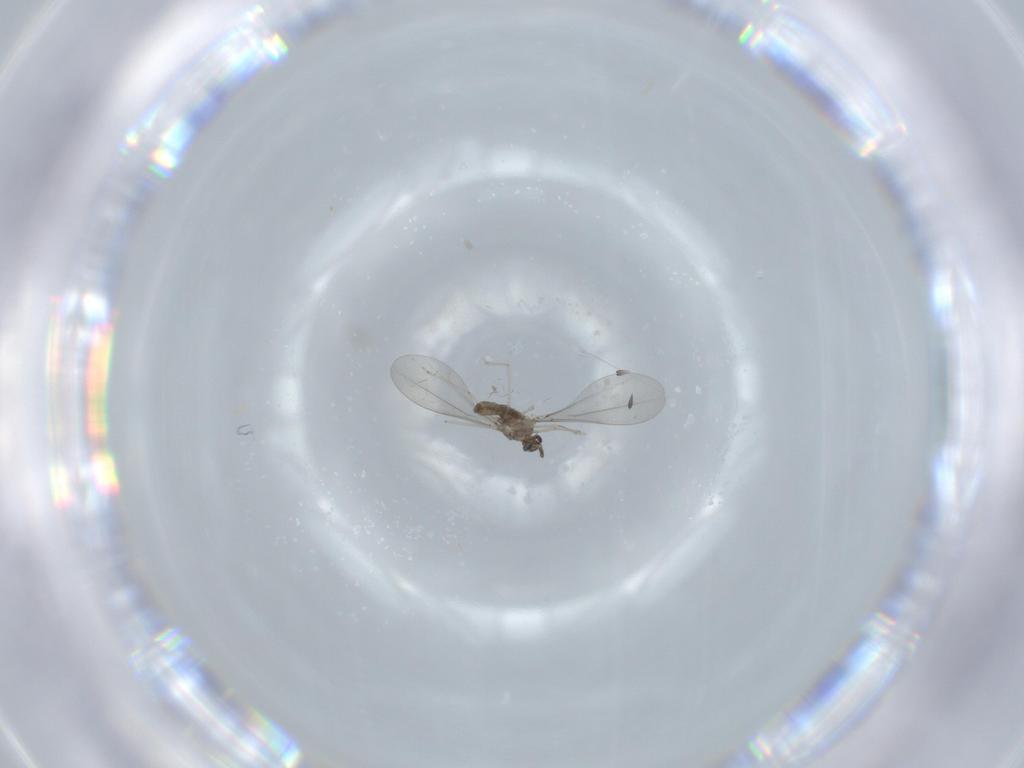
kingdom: Animalia
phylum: Arthropoda
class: Insecta
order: Diptera
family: Cecidomyiidae
